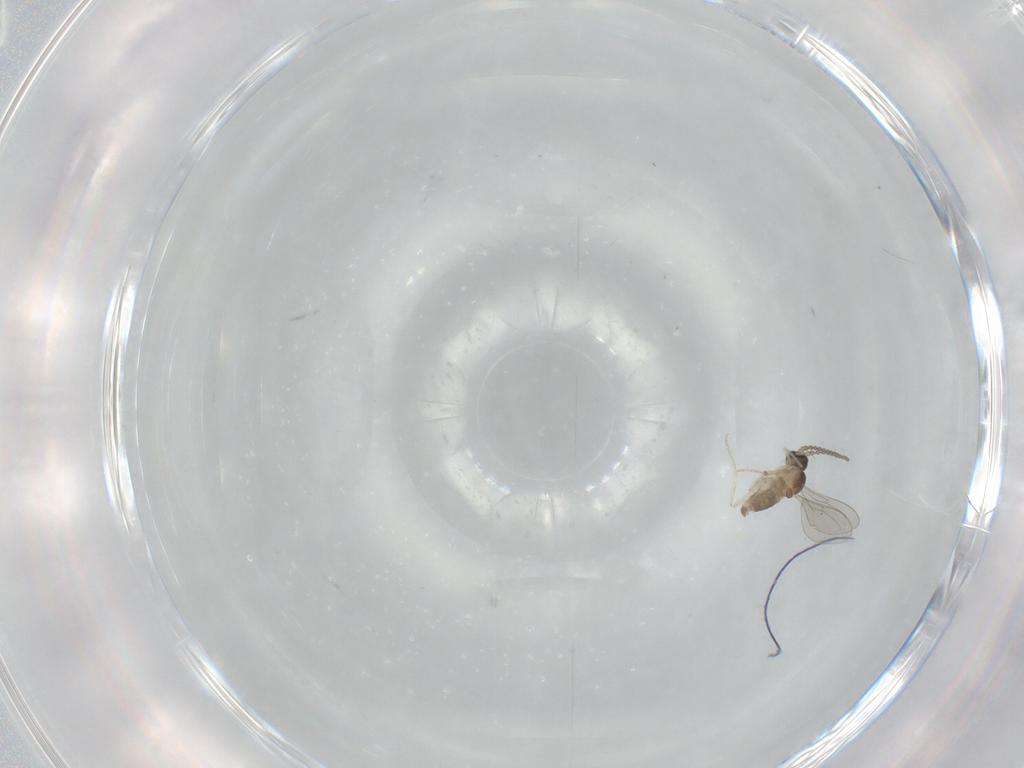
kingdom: Animalia
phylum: Arthropoda
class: Insecta
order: Diptera
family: Cecidomyiidae
